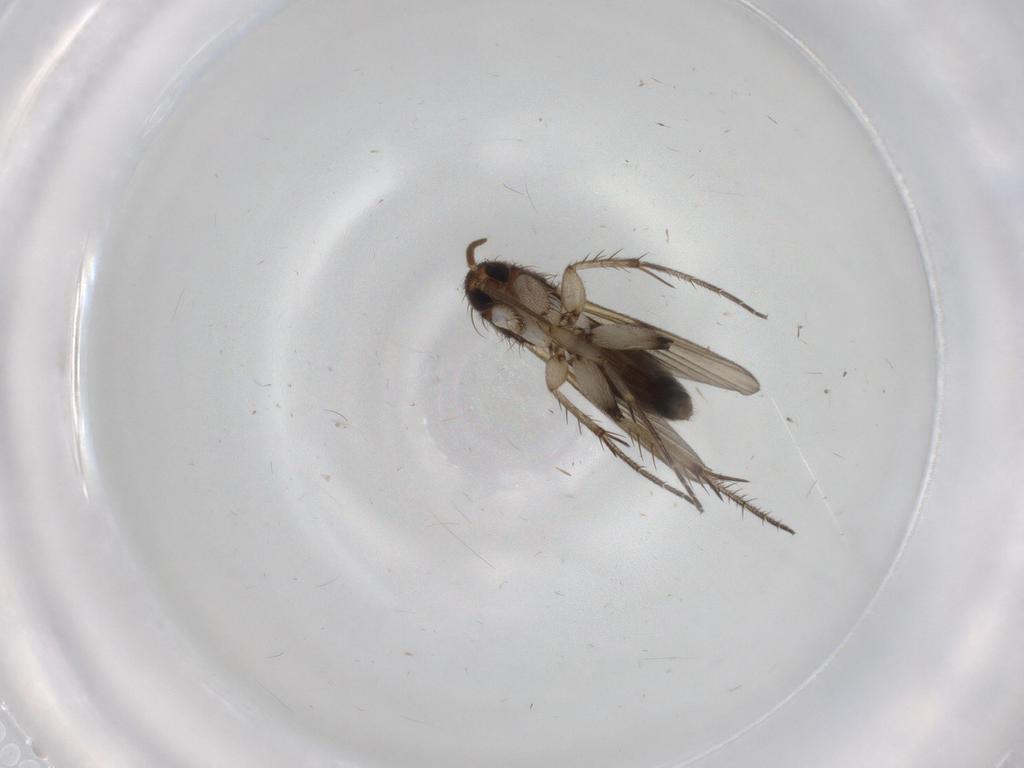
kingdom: Animalia
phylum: Arthropoda
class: Insecta
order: Diptera
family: Mycetophilidae
